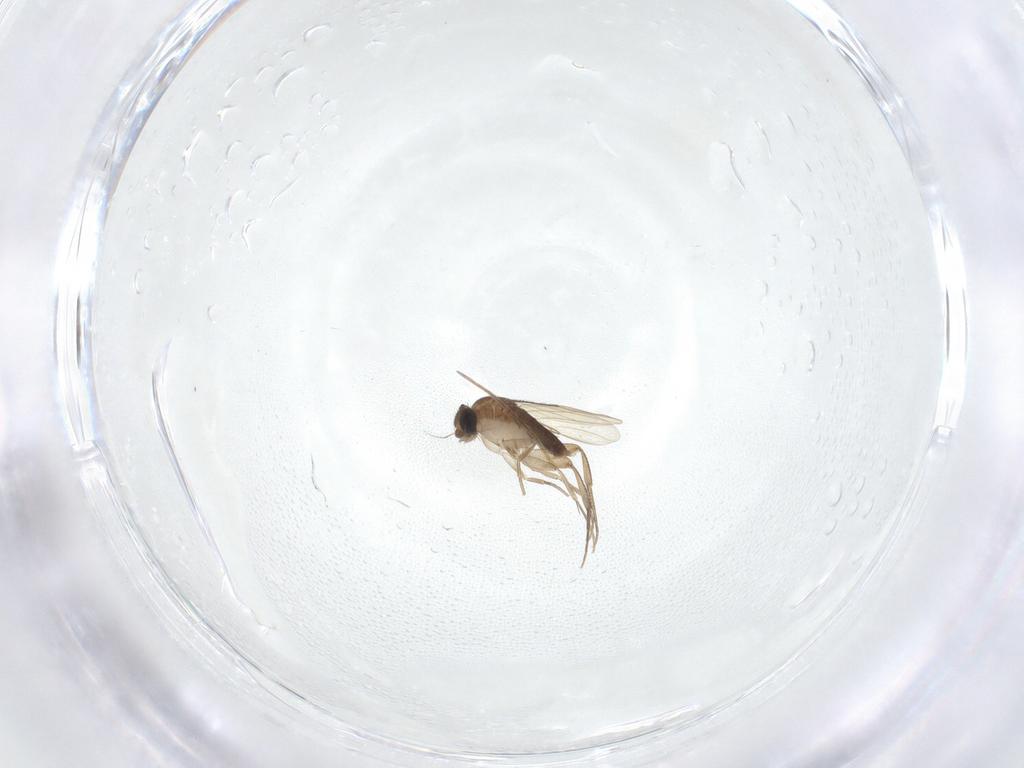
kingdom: Animalia
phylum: Arthropoda
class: Insecta
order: Diptera
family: Phoridae
